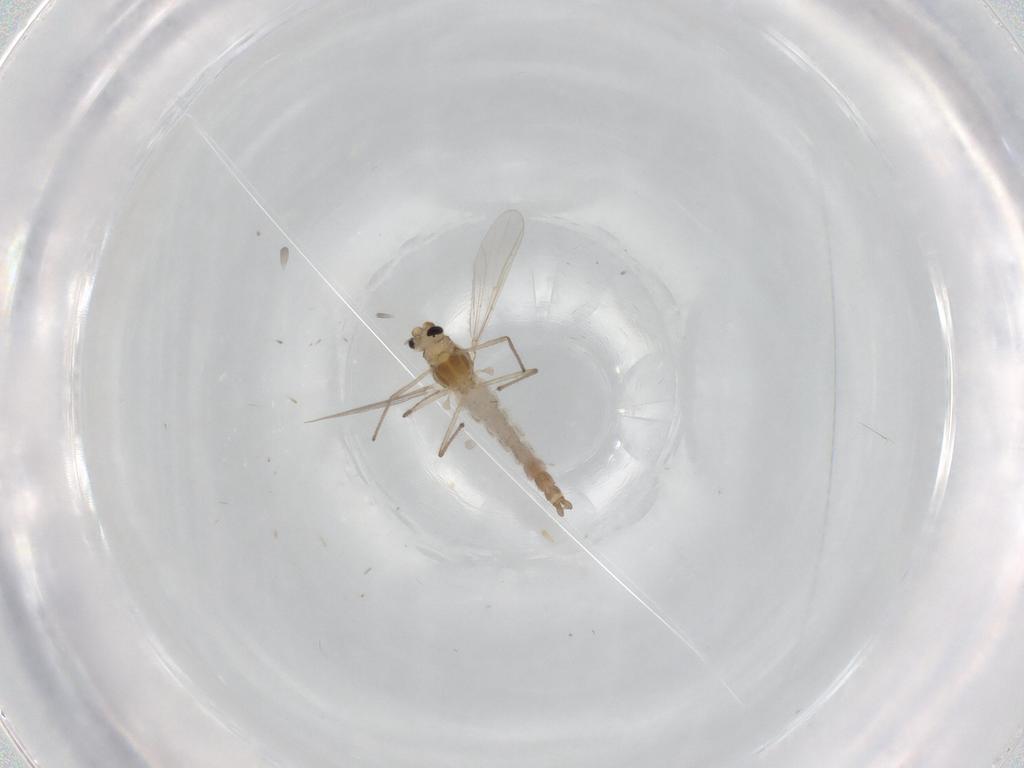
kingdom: Animalia
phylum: Arthropoda
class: Insecta
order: Diptera
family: Chironomidae
